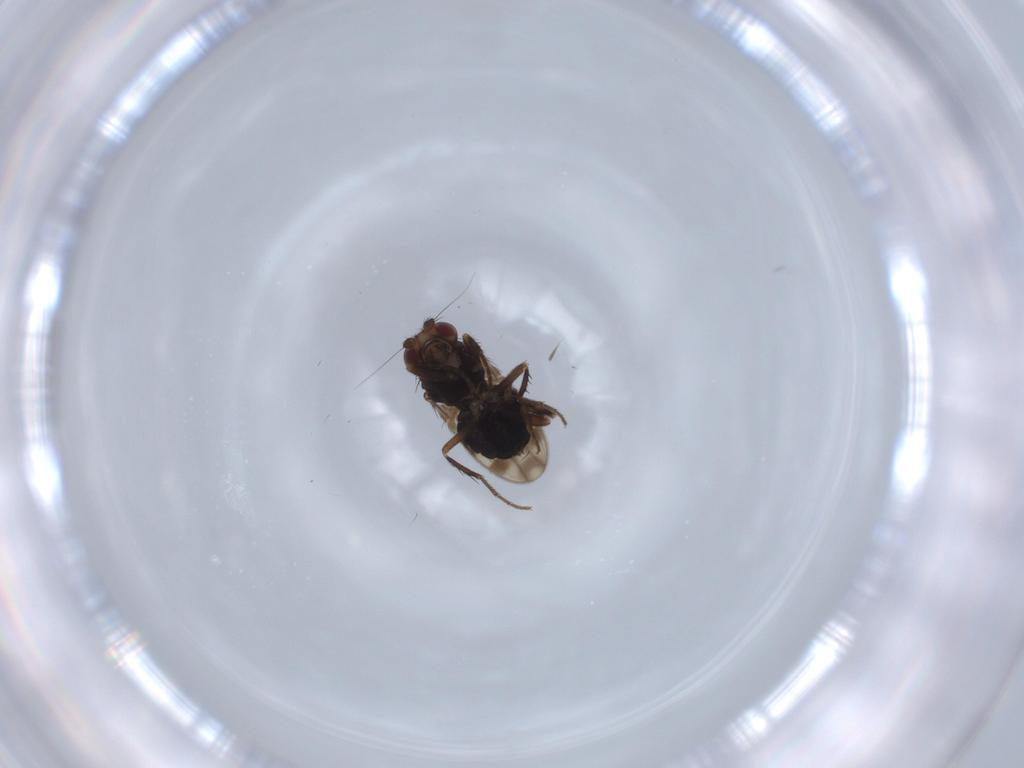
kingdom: Animalia
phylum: Arthropoda
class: Insecta
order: Diptera
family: Sphaeroceridae
